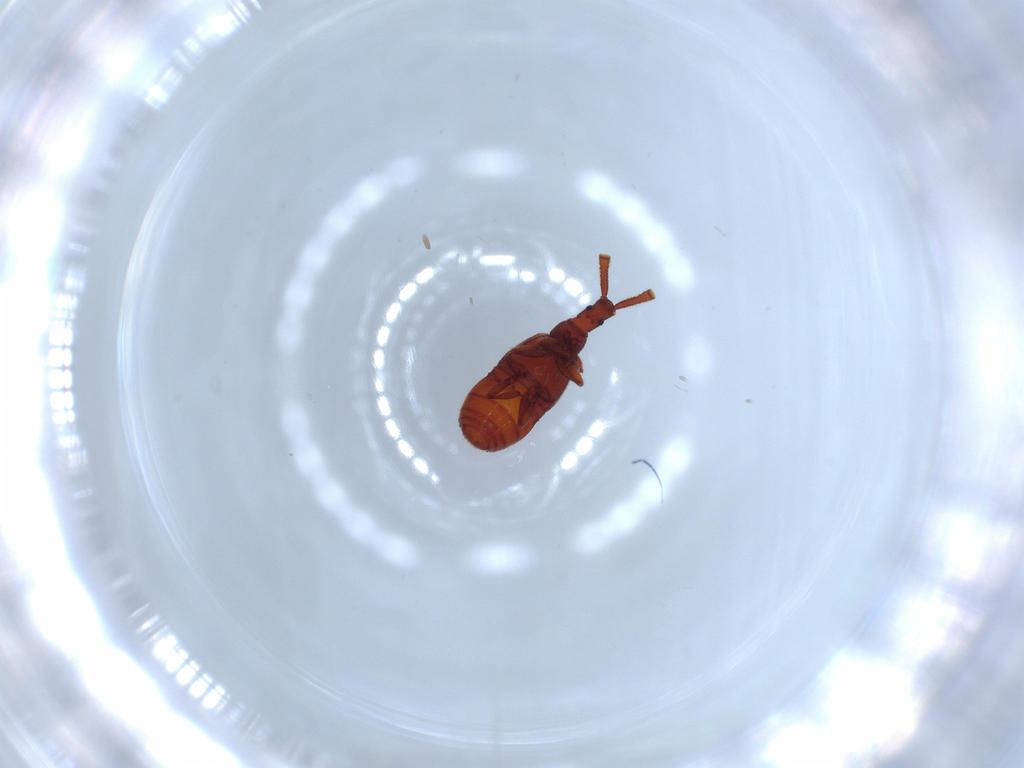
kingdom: Animalia
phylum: Arthropoda
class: Insecta
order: Coleoptera
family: Staphylinidae
